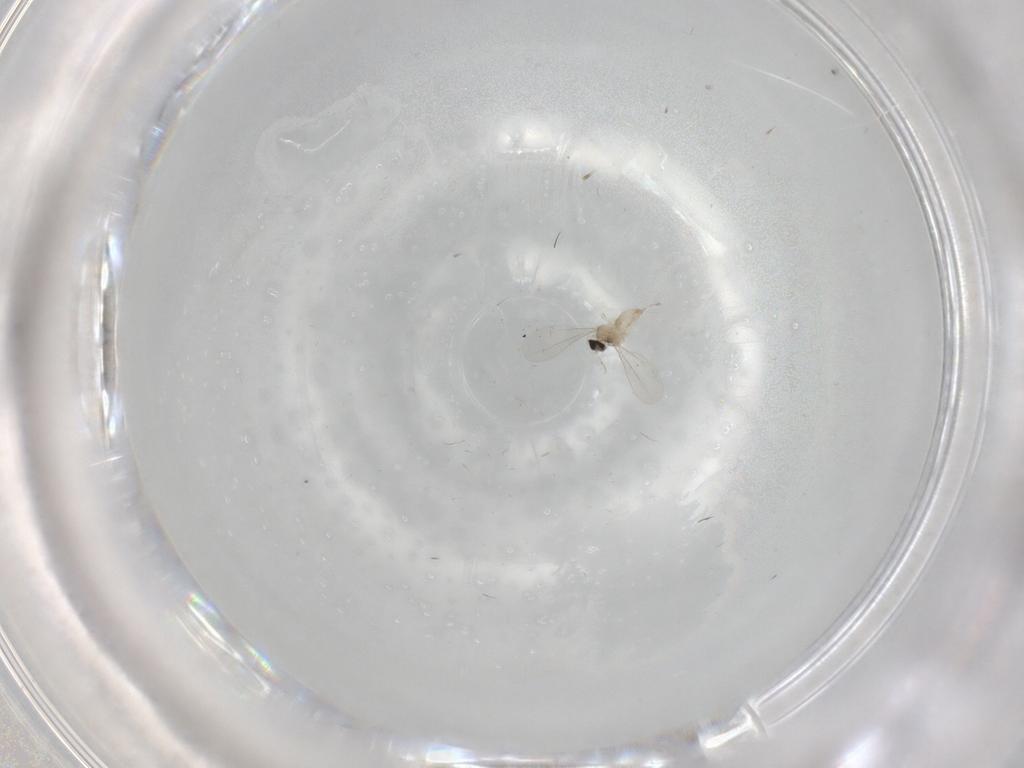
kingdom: Animalia
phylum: Arthropoda
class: Insecta
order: Diptera
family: Cecidomyiidae
